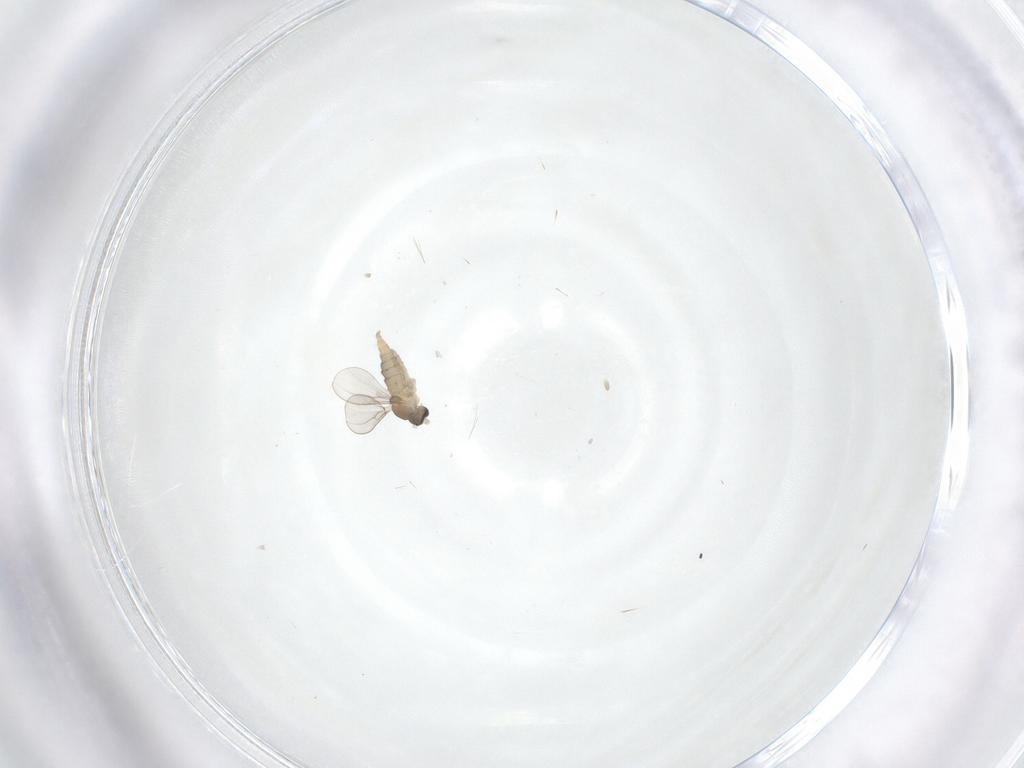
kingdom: Animalia
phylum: Arthropoda
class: Insecta
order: Diptera
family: Cecidomyiidae
